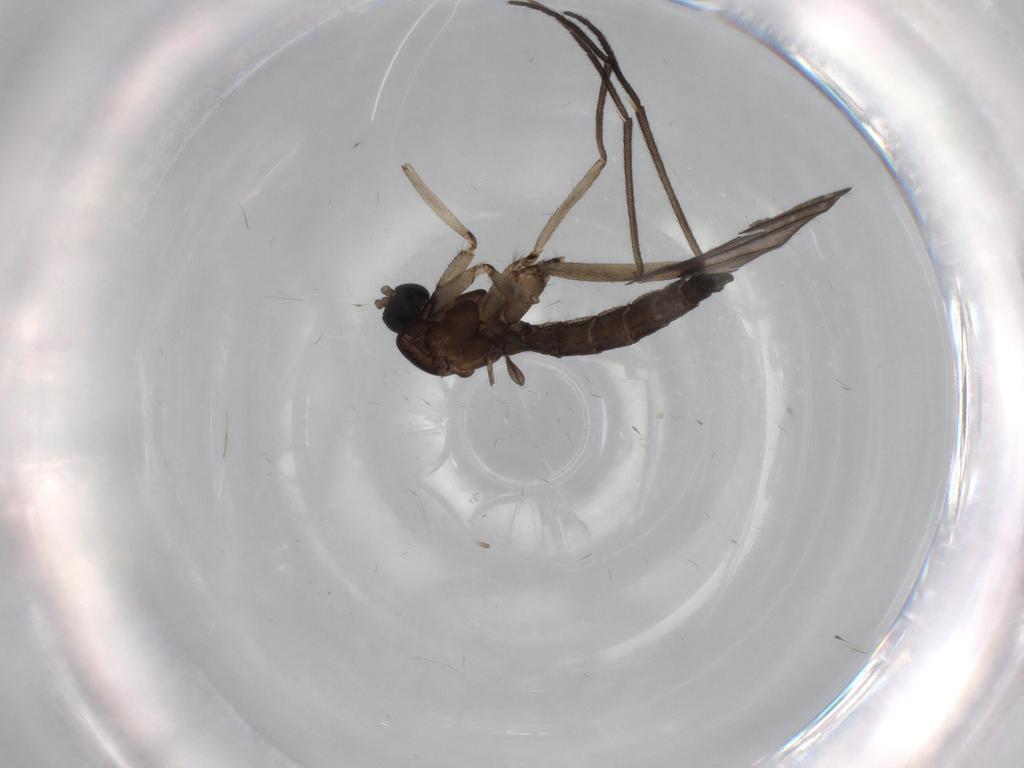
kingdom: Animalia
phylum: Arthropoda
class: Insecta
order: Diptera
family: Sciaridae
